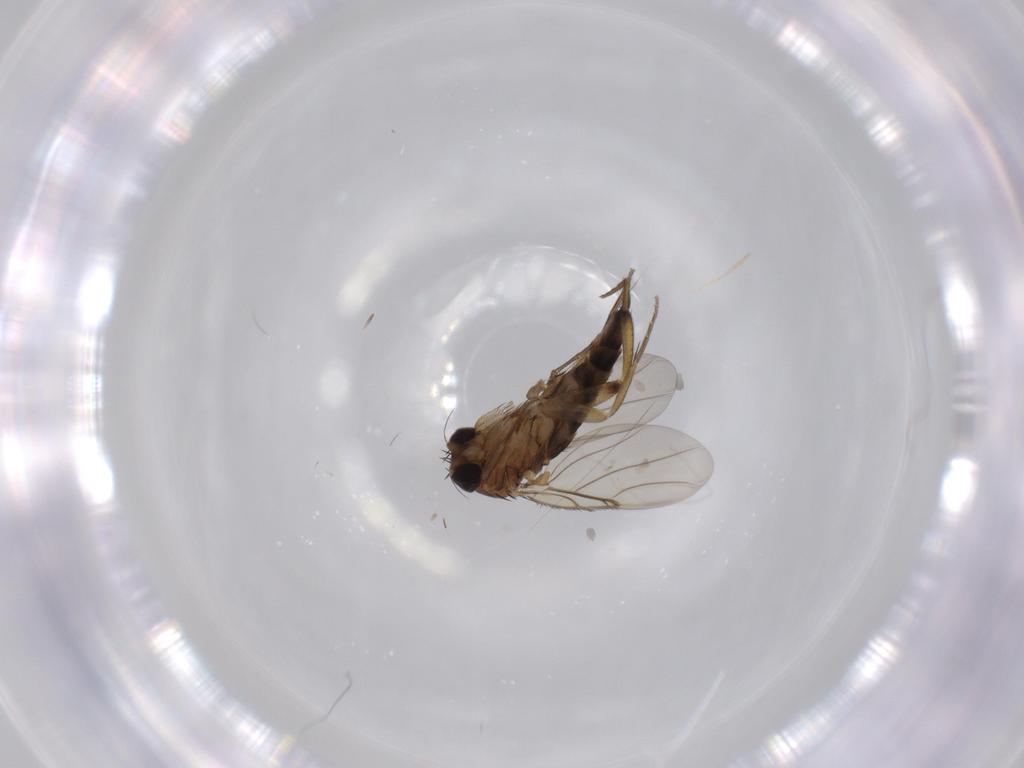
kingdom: Animalia
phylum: Arthropoda
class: Insecta
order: Diptera
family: Phoridae
